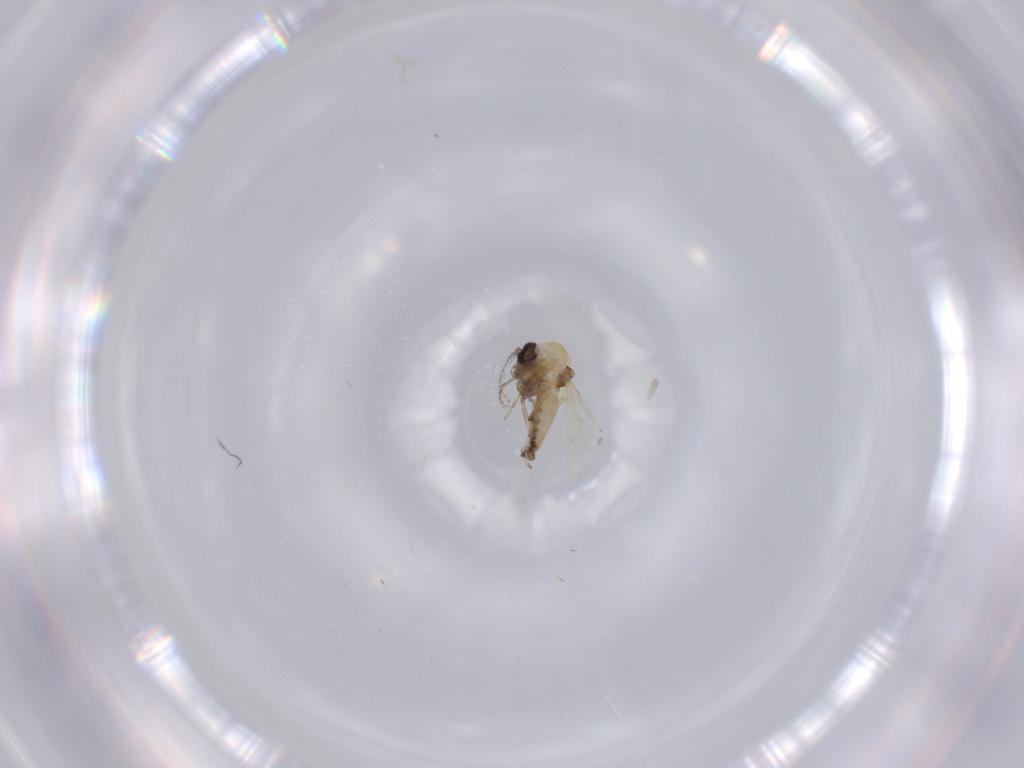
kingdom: Animalia
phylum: Arthropoda
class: Insecta
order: Diptera
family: Ceratopogonidae
